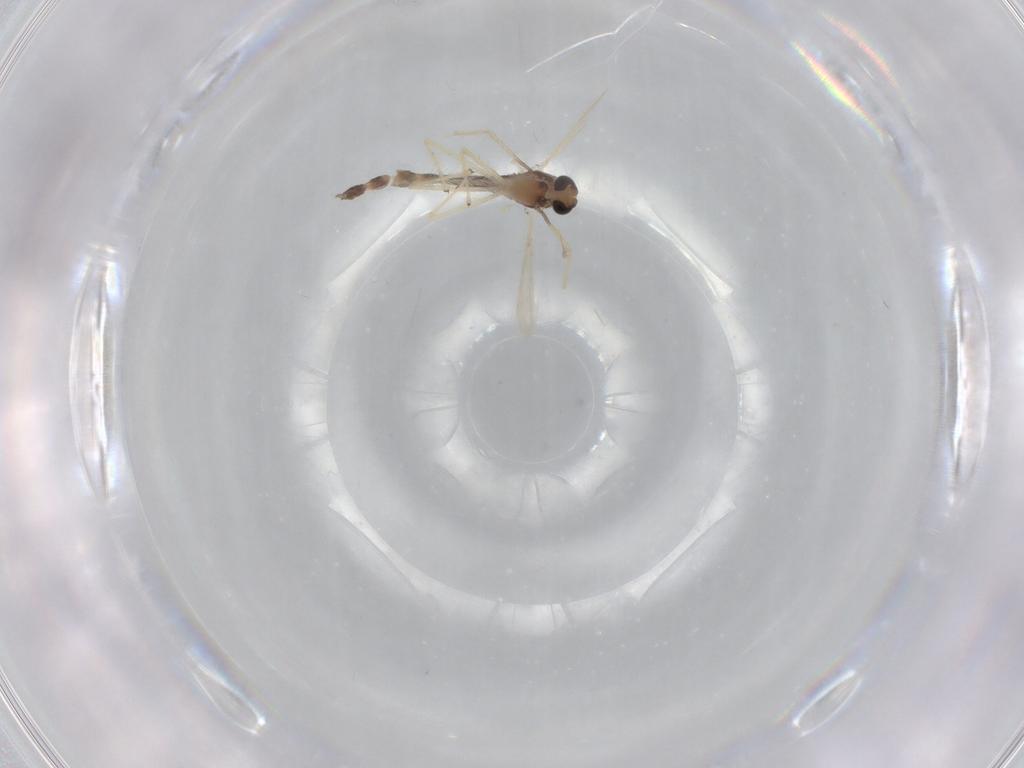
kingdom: Animalia
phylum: Arthropoda
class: Insecta
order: Diptera
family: Chironomidae
